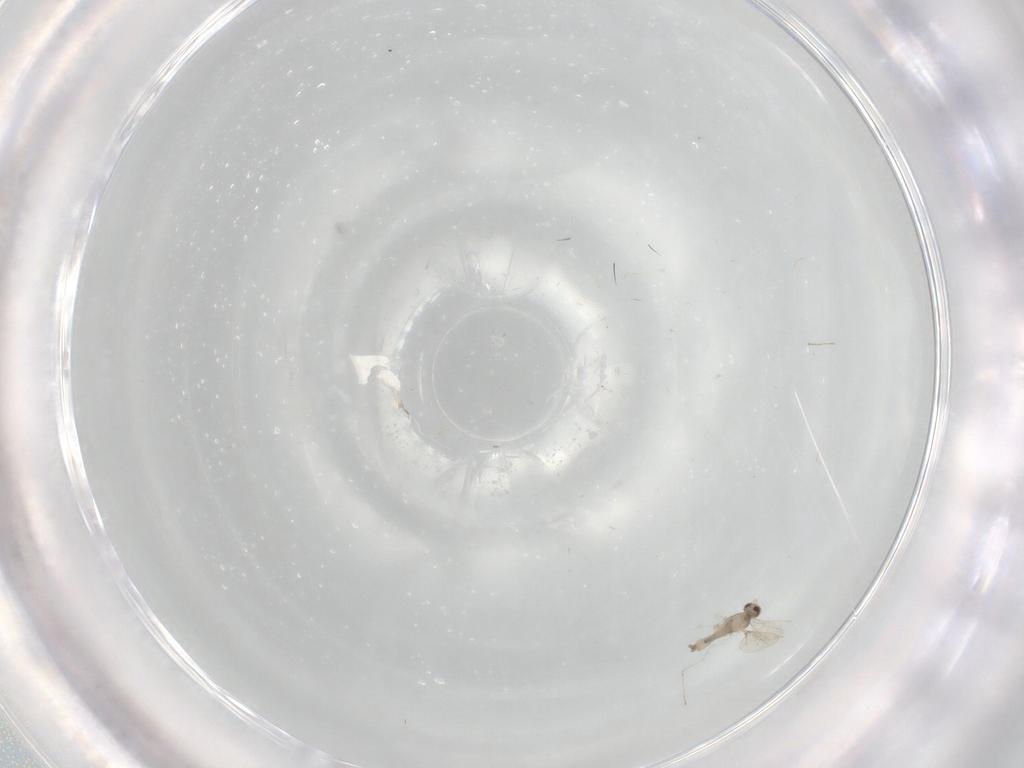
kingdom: Animalia
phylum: Arthropoda
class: Insecta
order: Diptera
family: Cecidomyiidae
